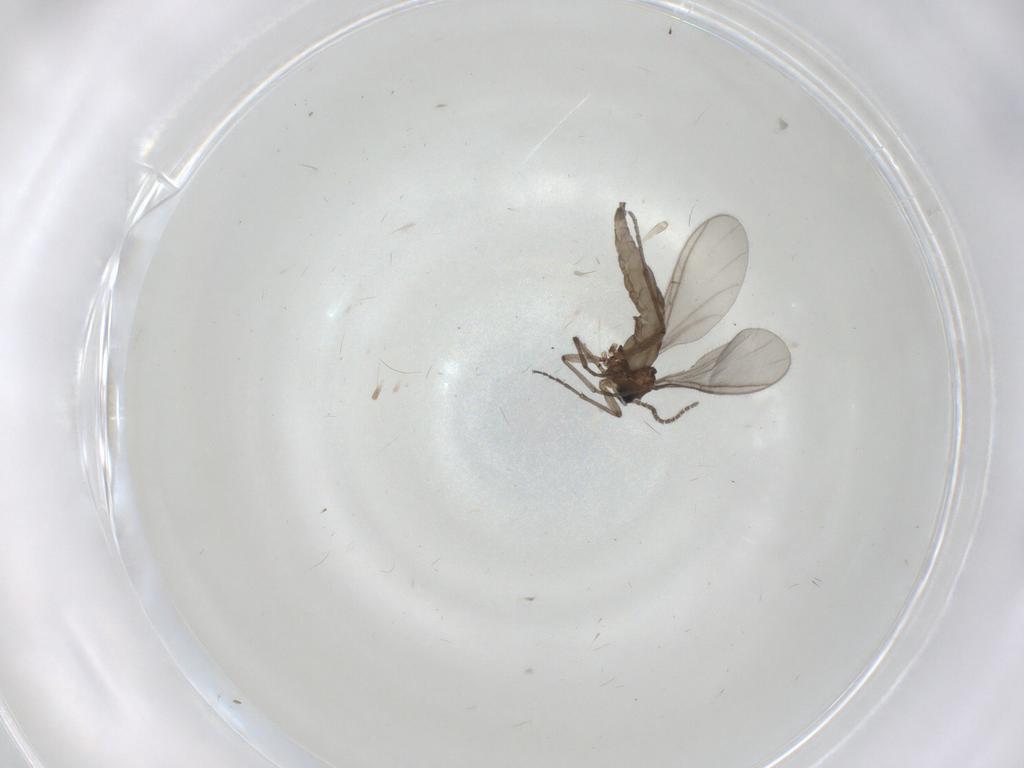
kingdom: Animalia
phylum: Arthropoda
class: Insecta
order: Diptera
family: Sciaridae
